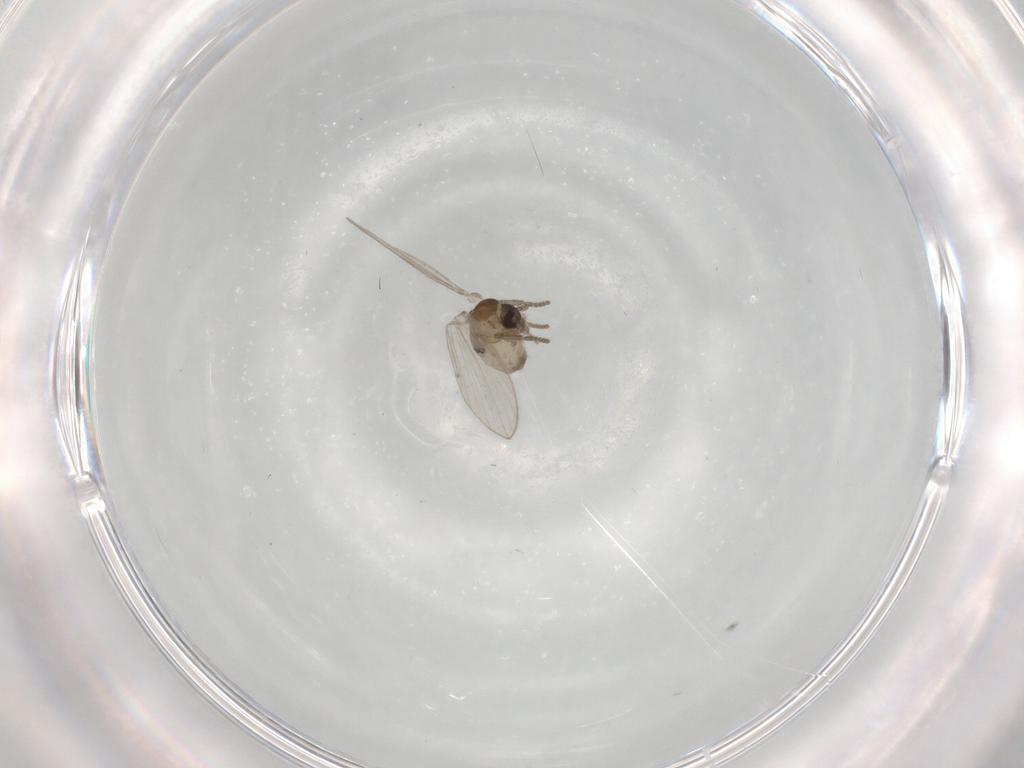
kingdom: Animalia
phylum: Arthropoda
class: Insecta
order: Diptera
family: Psychodidae
